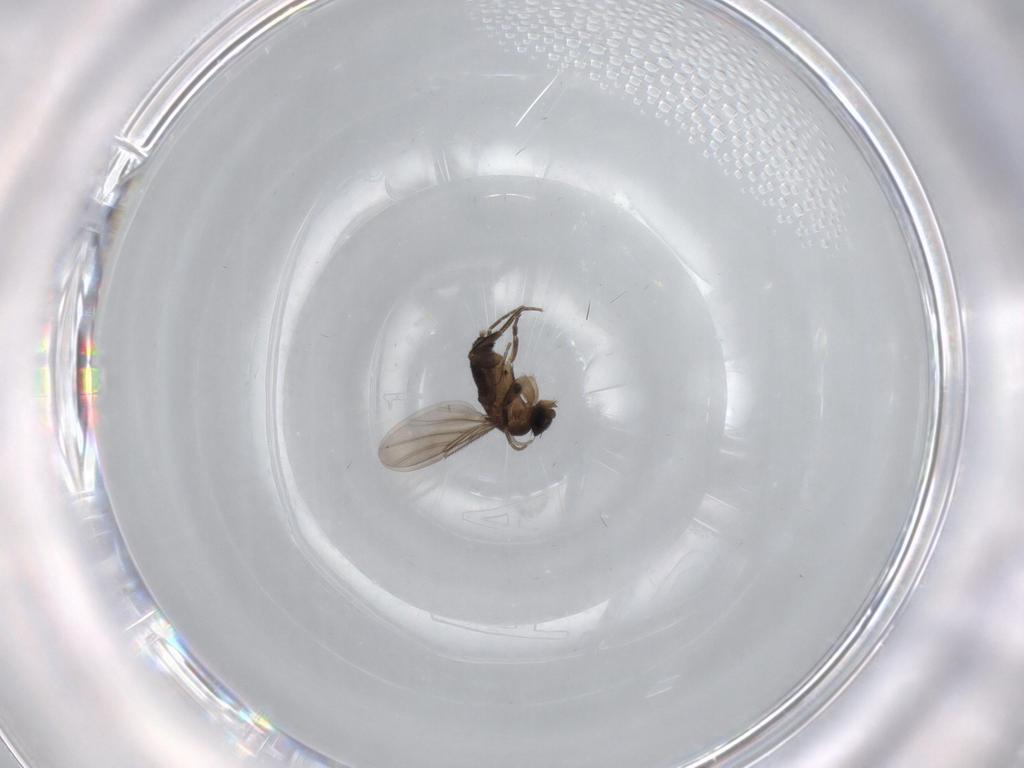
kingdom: Animalia
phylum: Arthropoda
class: Insecta
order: Diptera
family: Phoridae
